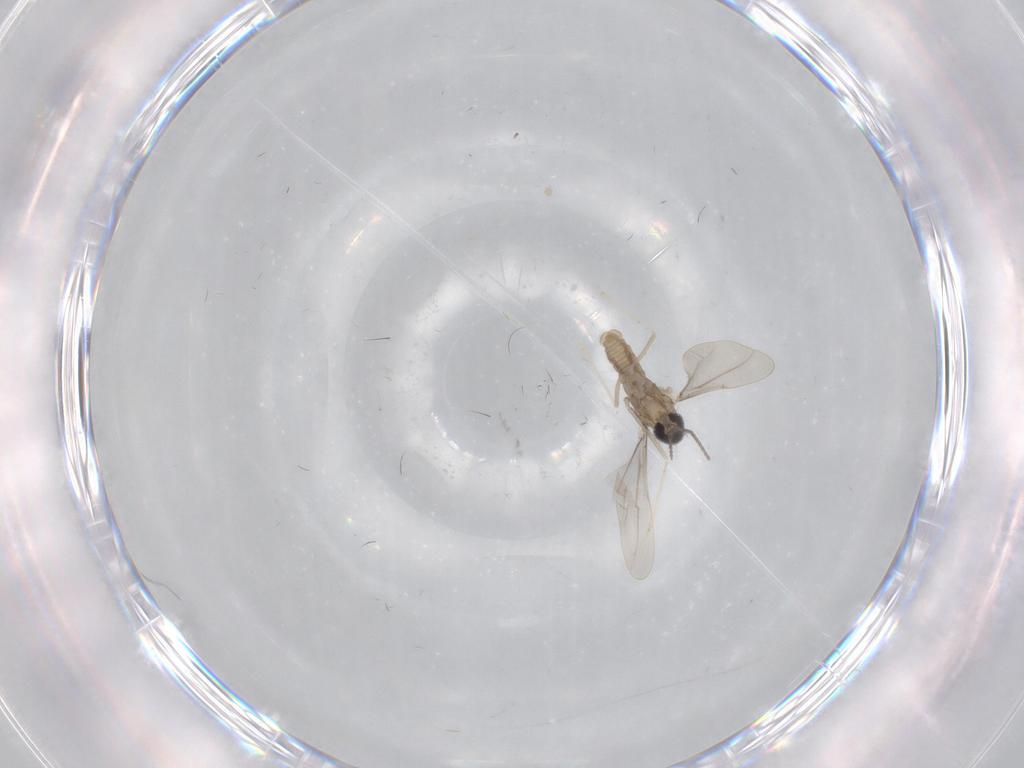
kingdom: Animalia
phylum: Arthropoda
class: Insecta
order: Diptera
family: Cecidomyiidae
